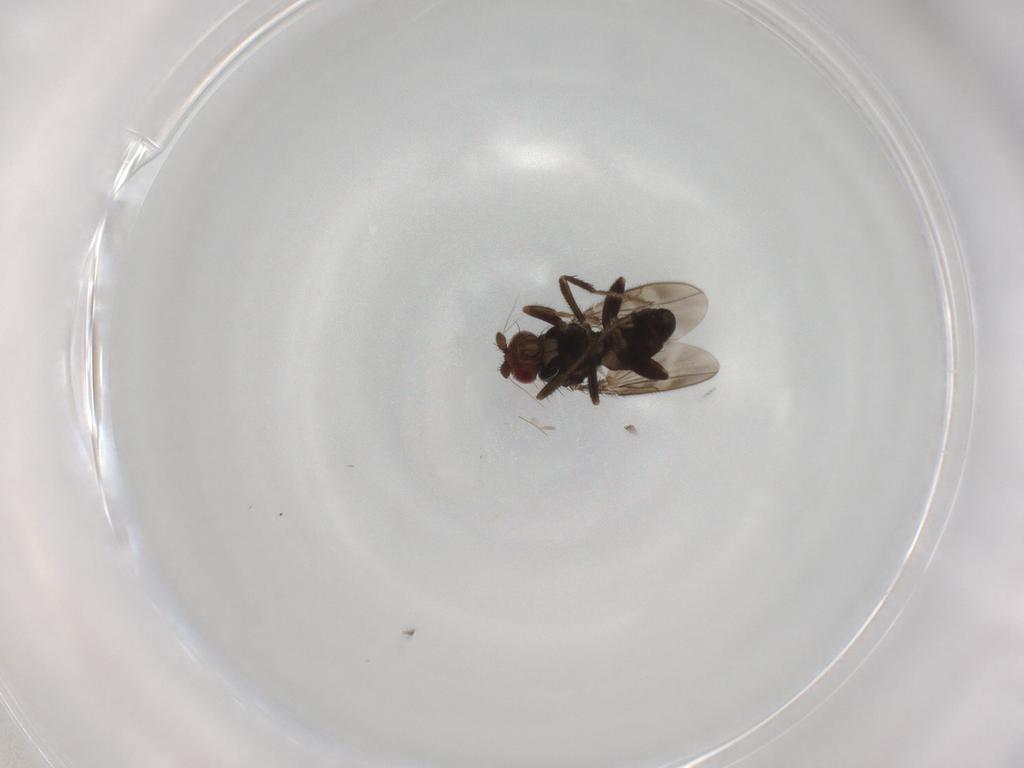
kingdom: Animalia
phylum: Arthropoda
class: Insecta
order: Diptera
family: Sphaeroceridae
